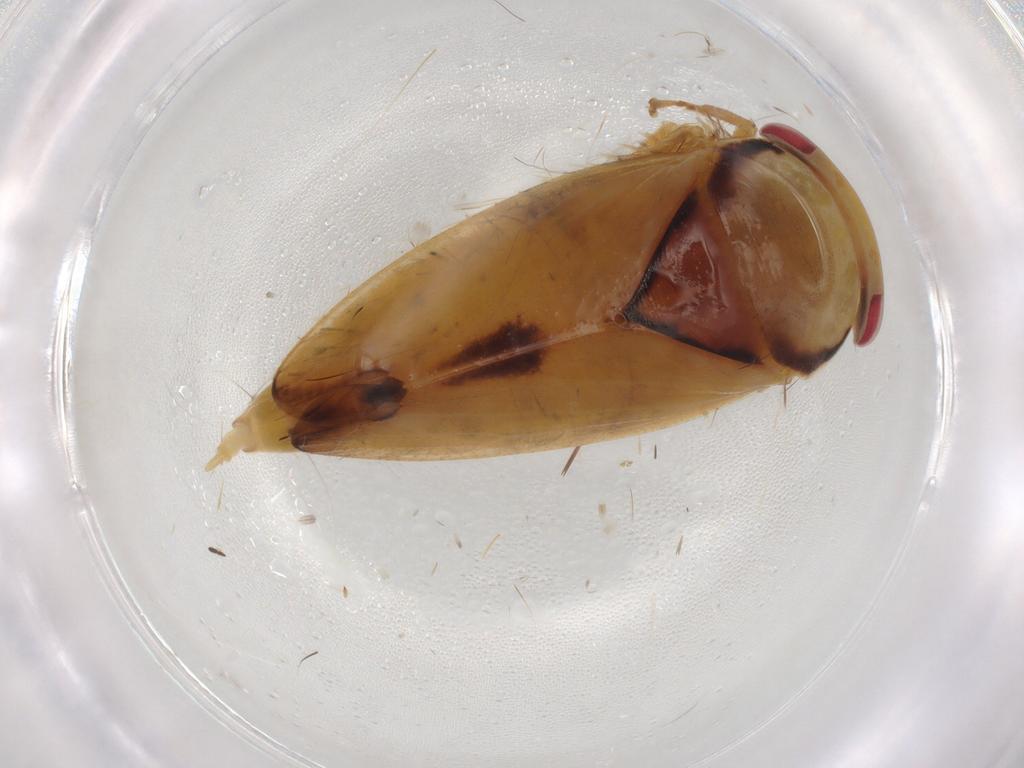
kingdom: Animalia
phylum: Arthropoda
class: Insecta
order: Hemiptera
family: Cicadellidae
